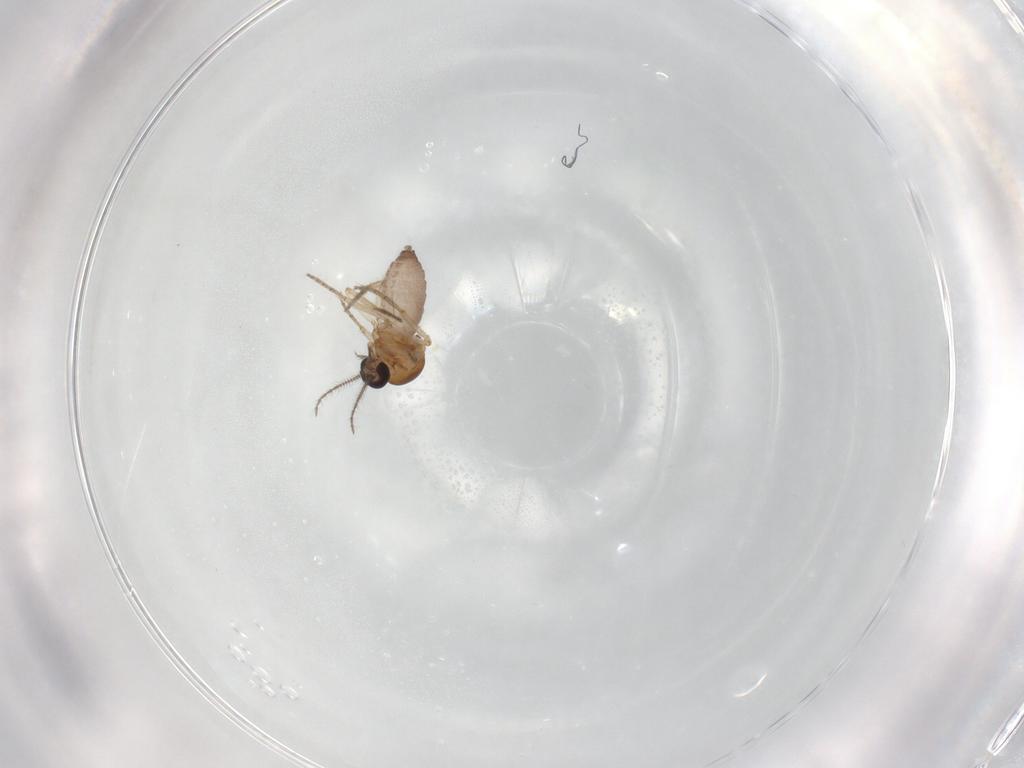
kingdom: Animalia
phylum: Arthropoda
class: Insecta
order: Diptera
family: Ceratopogonidae
